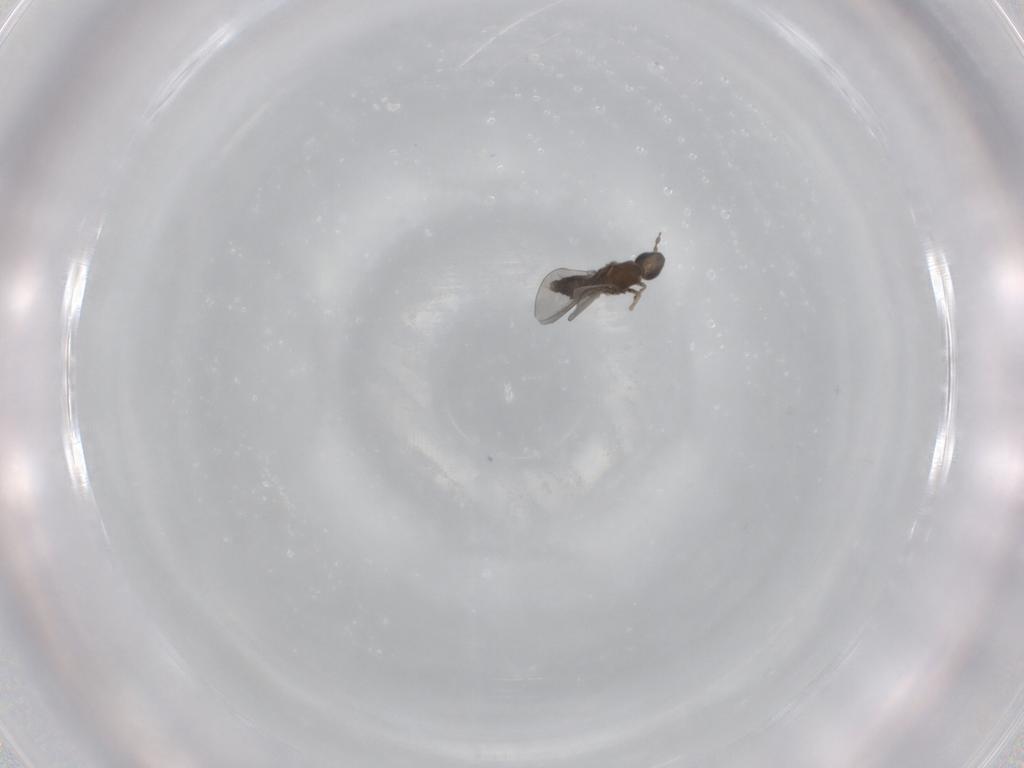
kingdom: Animalia
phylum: Arthropoda
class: Insecta
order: Diptera
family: Cecidomyiidae
